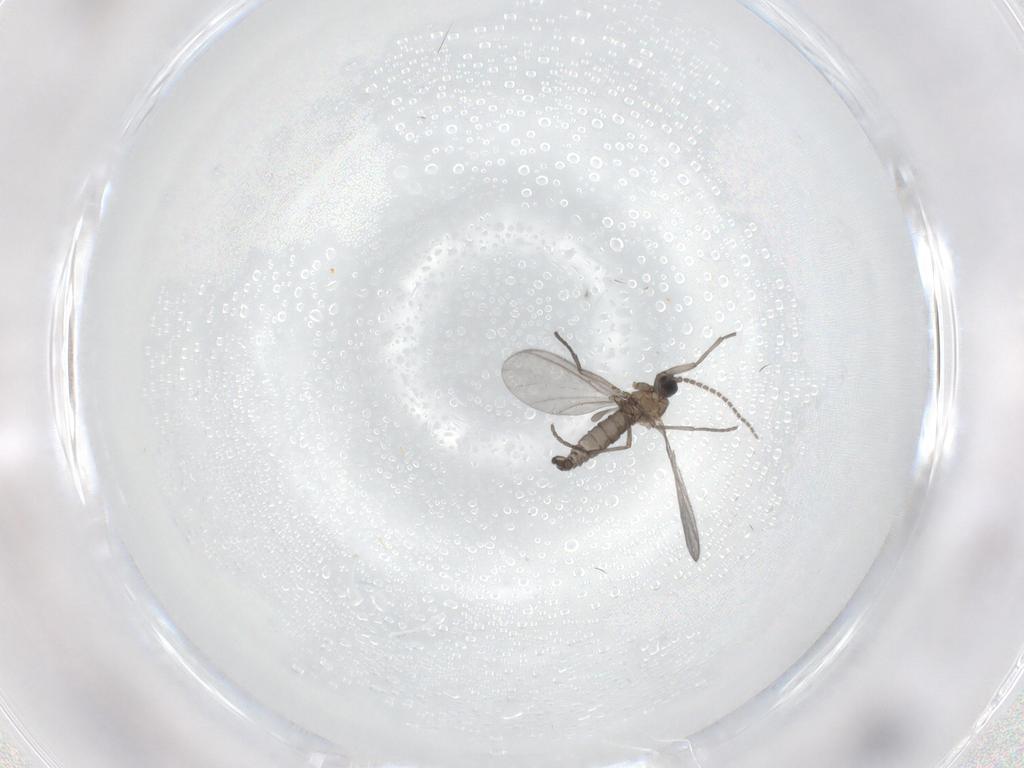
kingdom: Animalia
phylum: Arthropoda
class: Insecta
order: Diptera
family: Sciaridae
